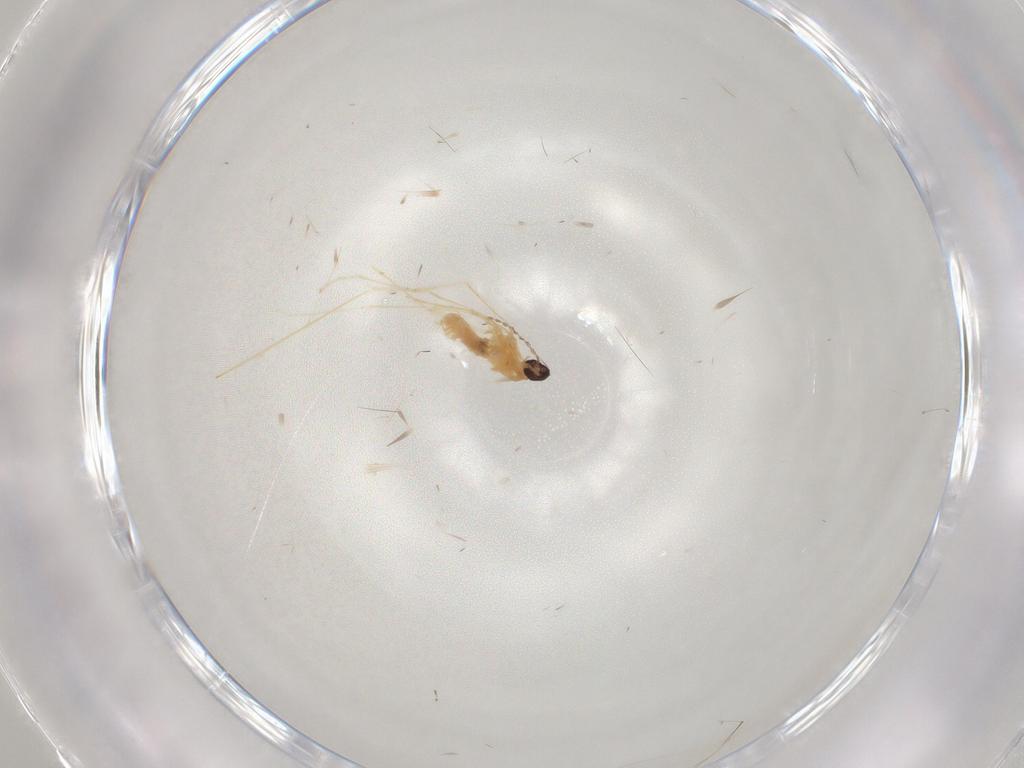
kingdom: Animalia
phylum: Arthropoda
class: Insecta
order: Diptera
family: Cecidomyiidae
